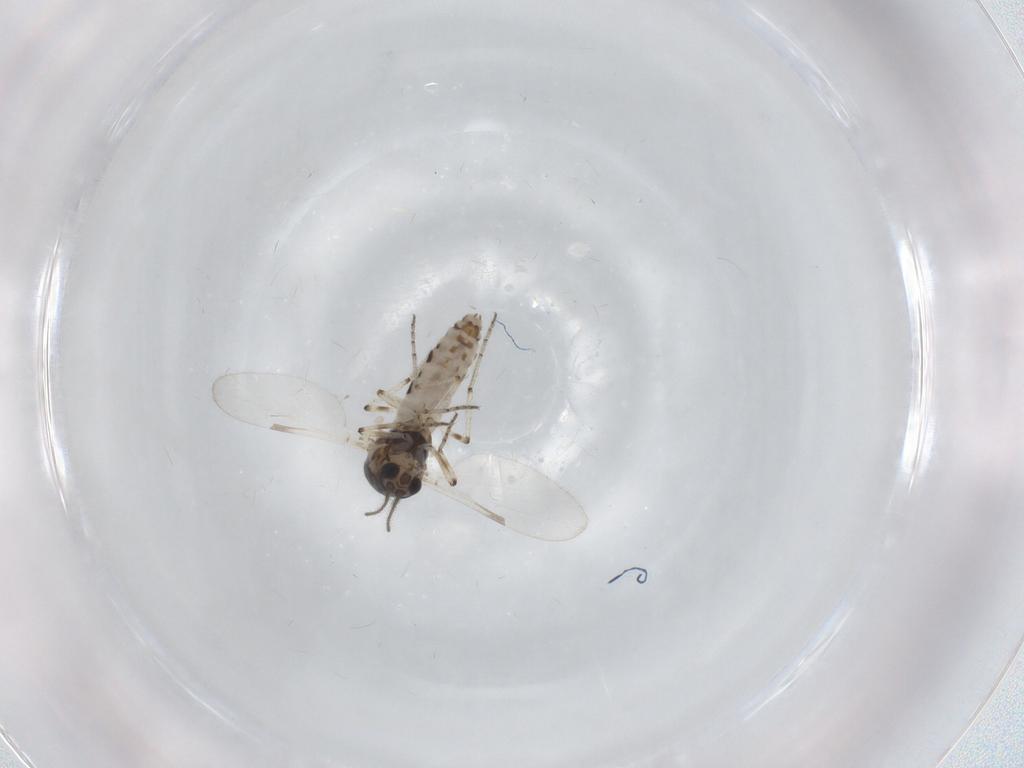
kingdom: Animalia
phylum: Arthropoda
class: Insecta
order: Diptera
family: Ceratopogonidae
